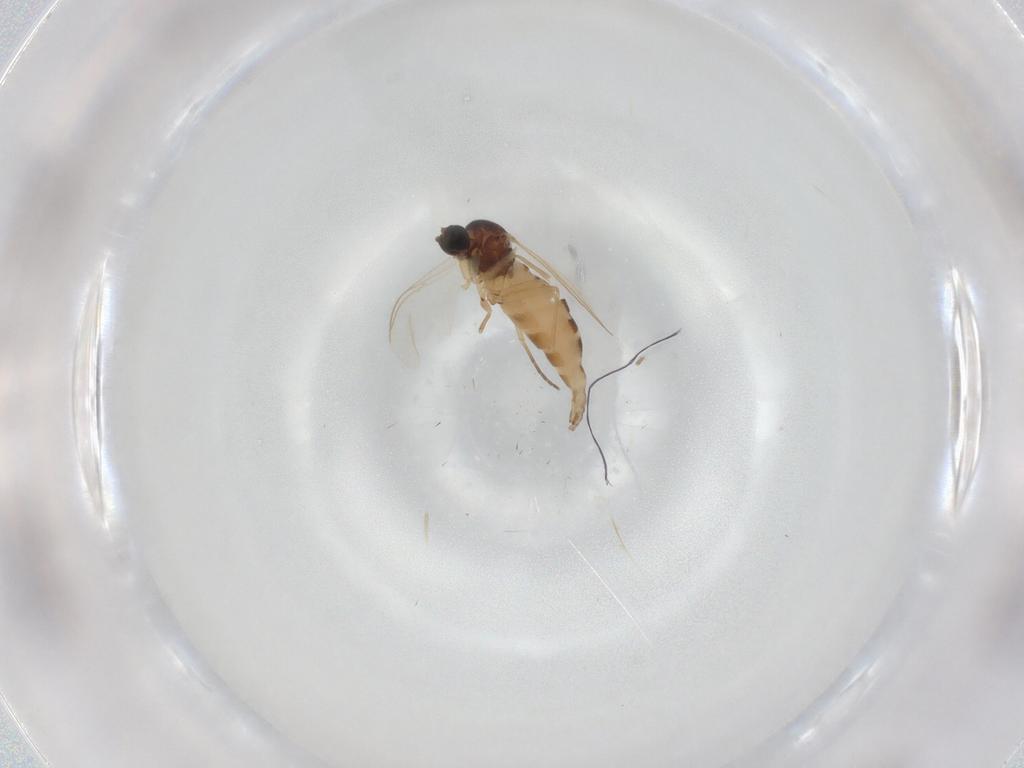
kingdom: Animalia
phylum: Arthropoda
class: Insecta
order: Diptera
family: Sciaridae
